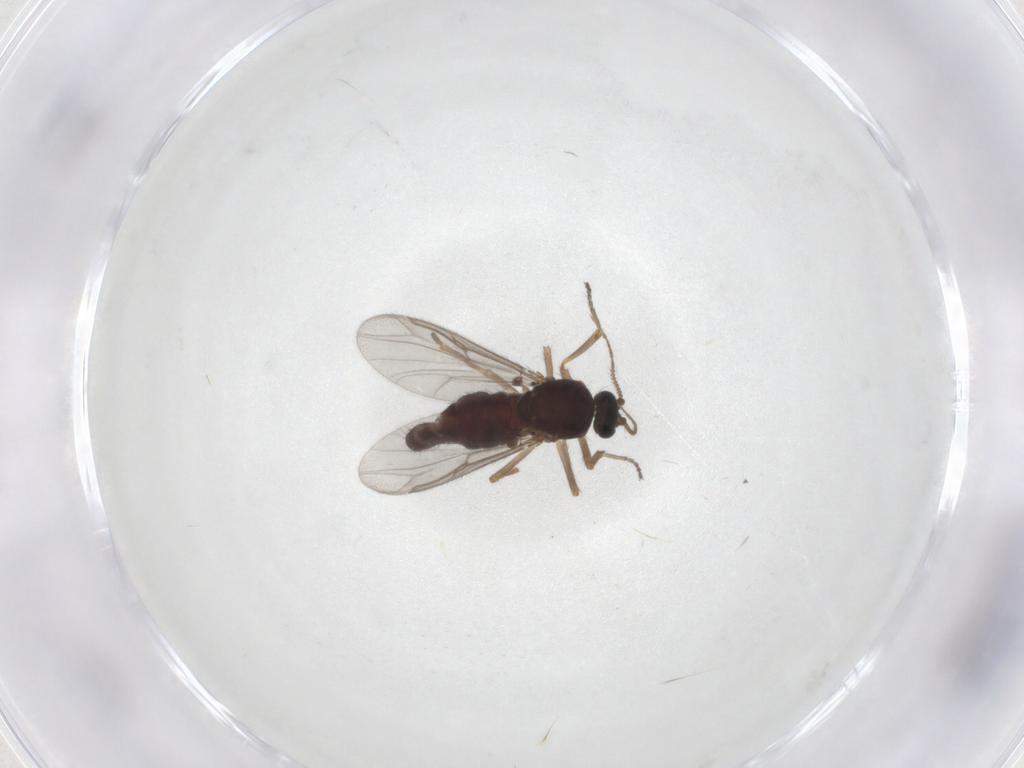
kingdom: Animalia
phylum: Arthropoda
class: Insecta
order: Diptera
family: Ceratopogonidae
